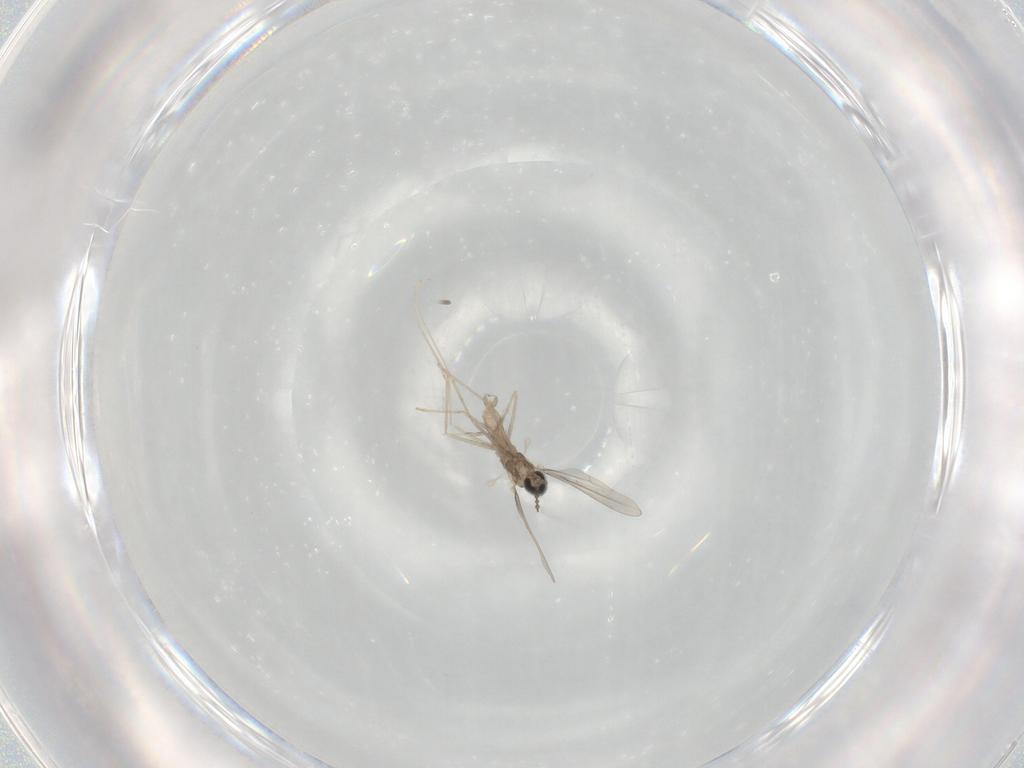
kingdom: Animalia
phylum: Arthropoda
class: Insecta
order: Diptera
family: Cecidomyiidae
